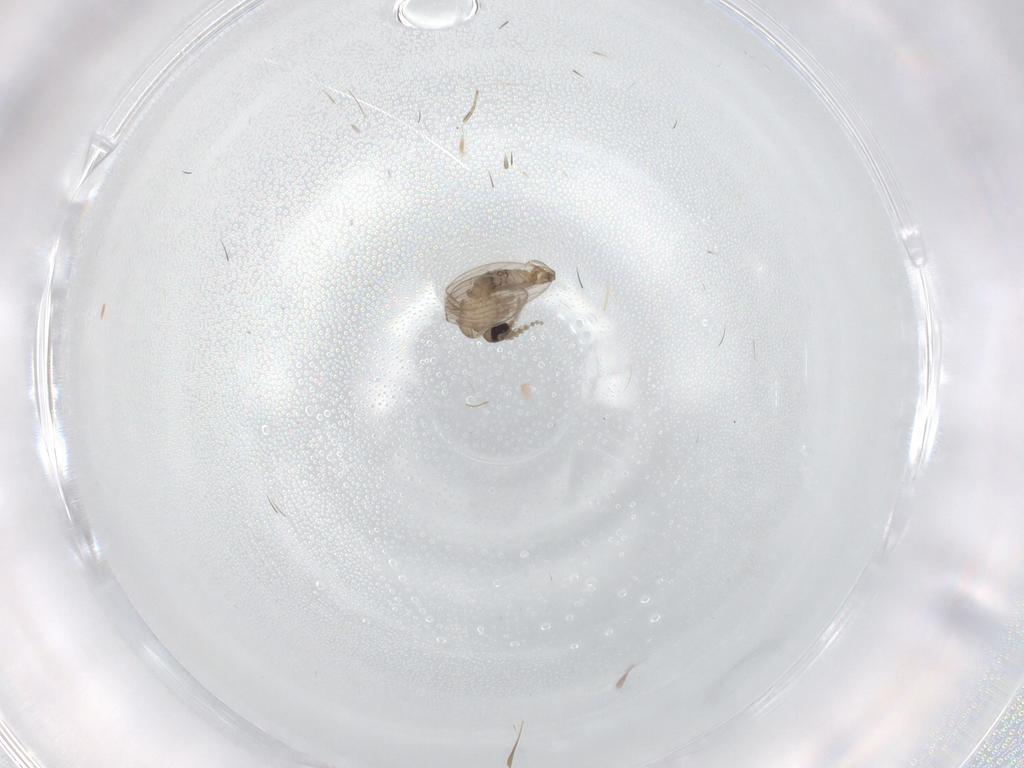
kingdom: Animalia
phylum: Arthropoda
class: Insecta
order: Diptera
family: Phoridae
